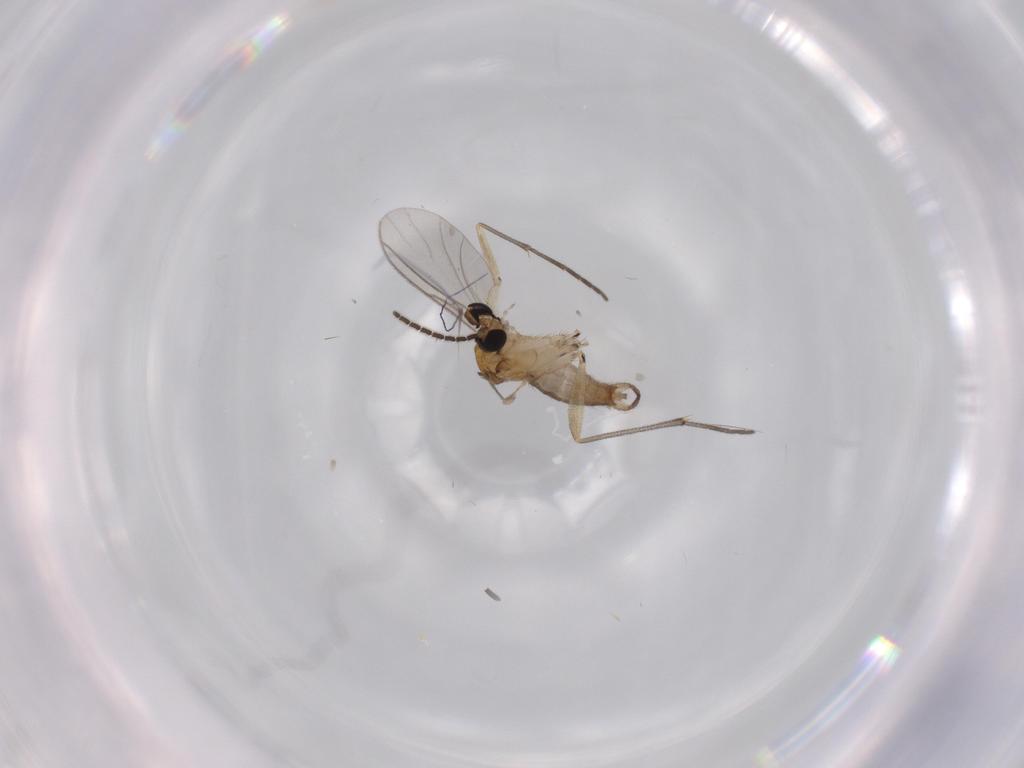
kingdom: Animalia
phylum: Arthropoda
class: Insecta
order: Diptera
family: Sciaridae
